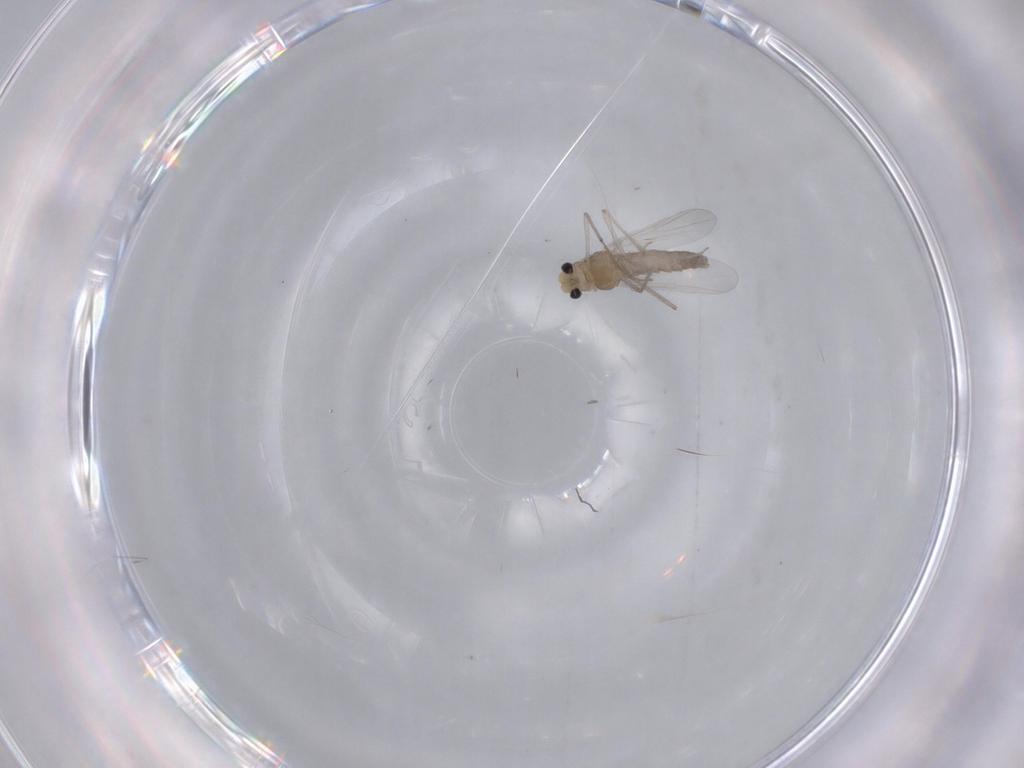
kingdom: Animalia
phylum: Arthropoda
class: Insecta
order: Diptera
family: Chironomidae
